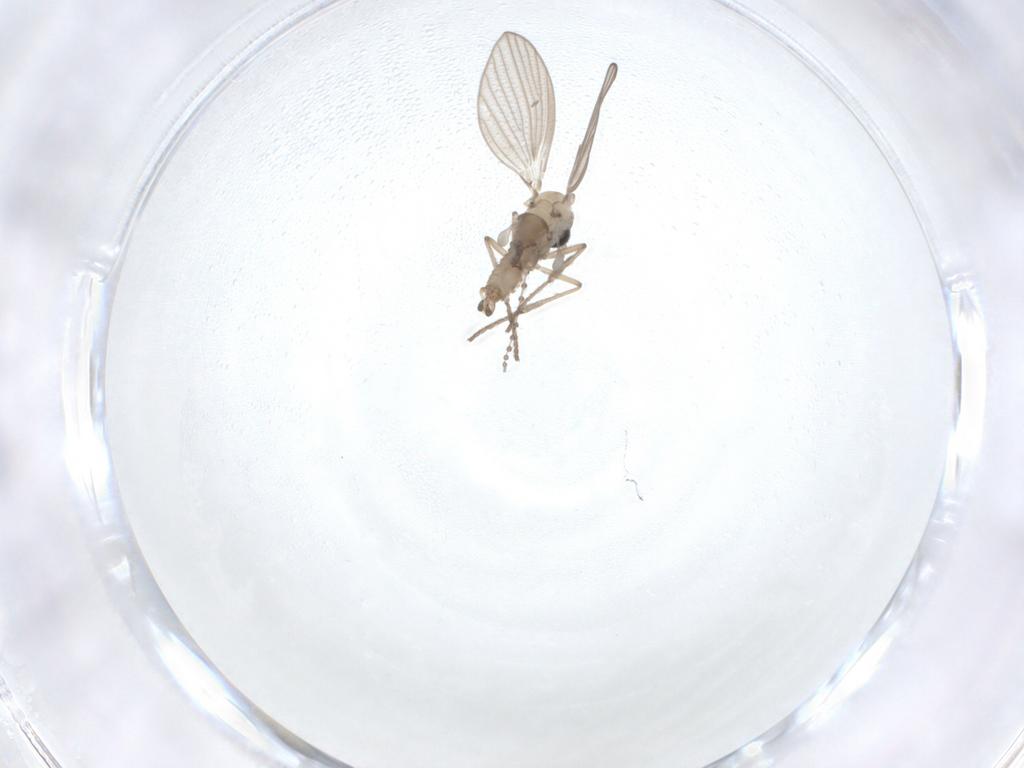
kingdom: Animalia
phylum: Arthropoda
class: Insecta
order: Diptera
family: Psychodidae
